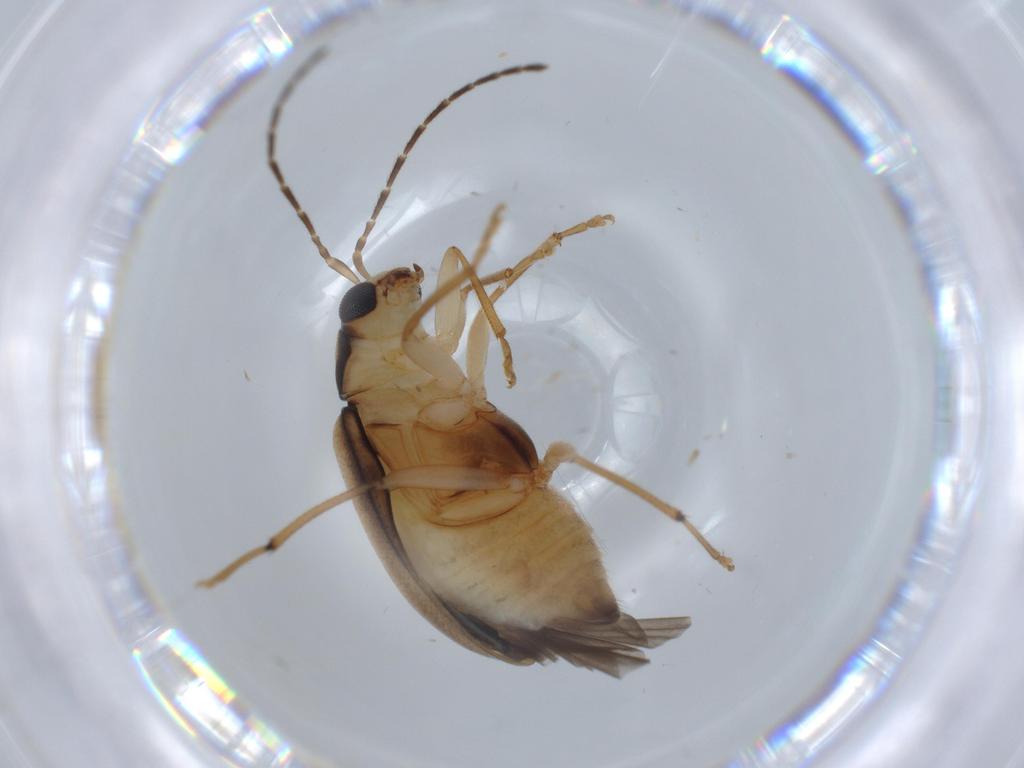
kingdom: Animalia
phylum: Arthropoda
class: Insecta
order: Coleoptera
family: Chrysomelidae
